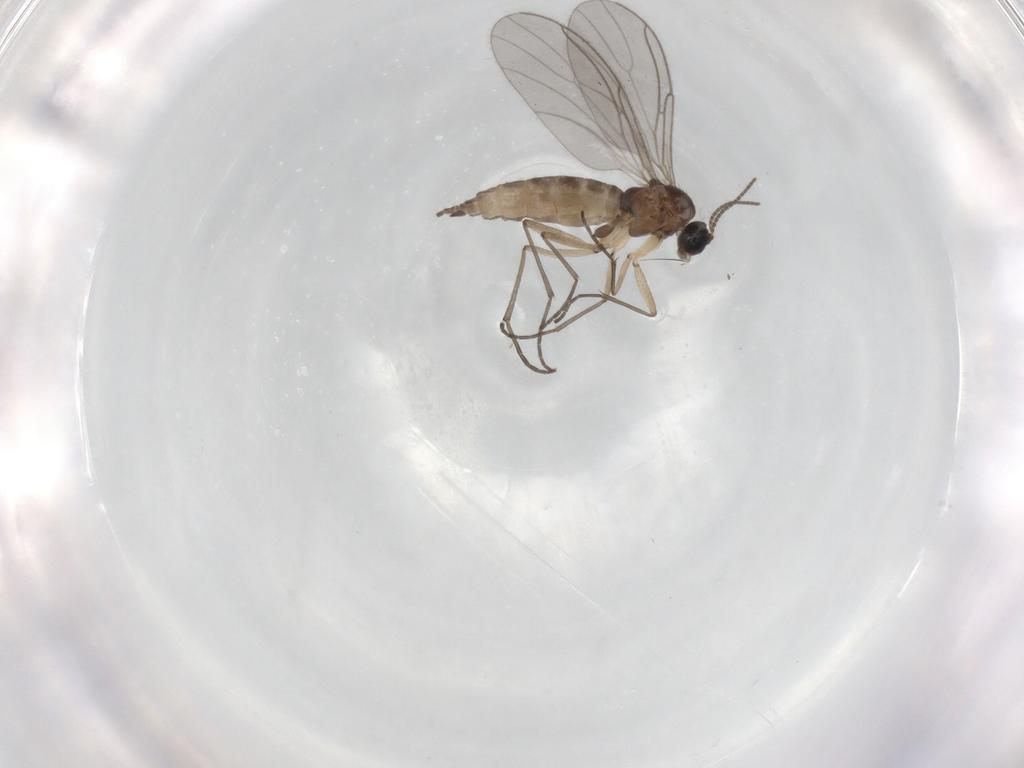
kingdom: Animalia
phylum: Arthropoda
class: Insecta
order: Diptera
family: Sciaridae
